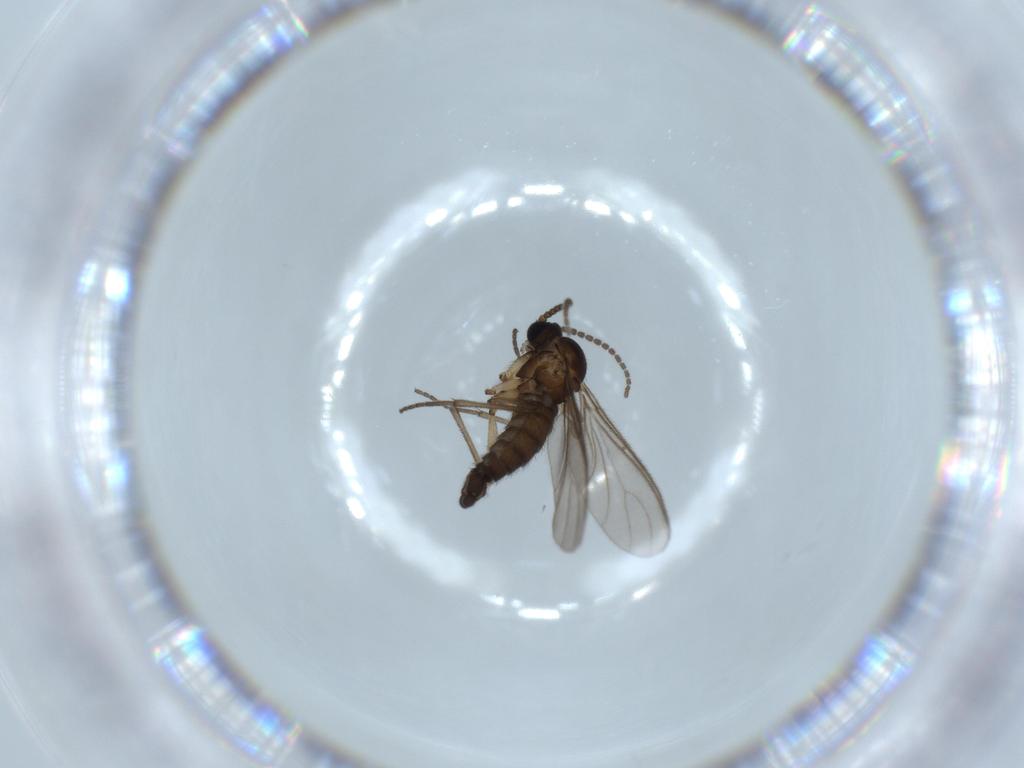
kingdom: Animalia
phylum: Arthropoda
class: Insecta
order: Diptera
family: Sciaridae
